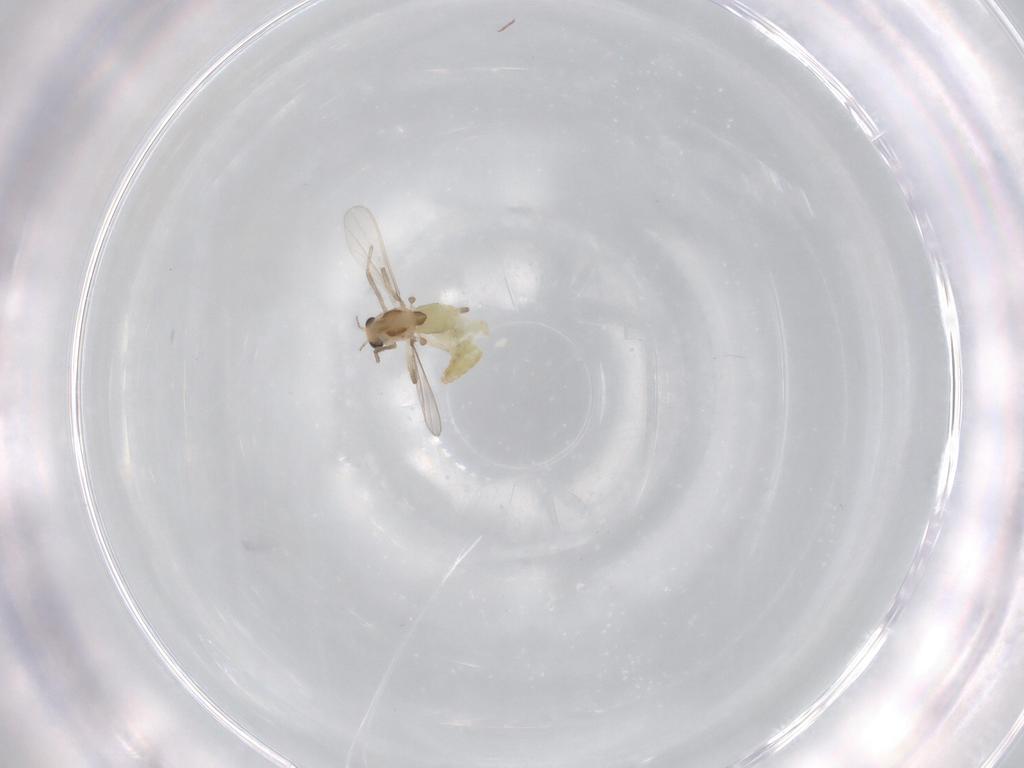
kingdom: Animalia
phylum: Arthropoda
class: Insecta
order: Diptera
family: Chironomidae
